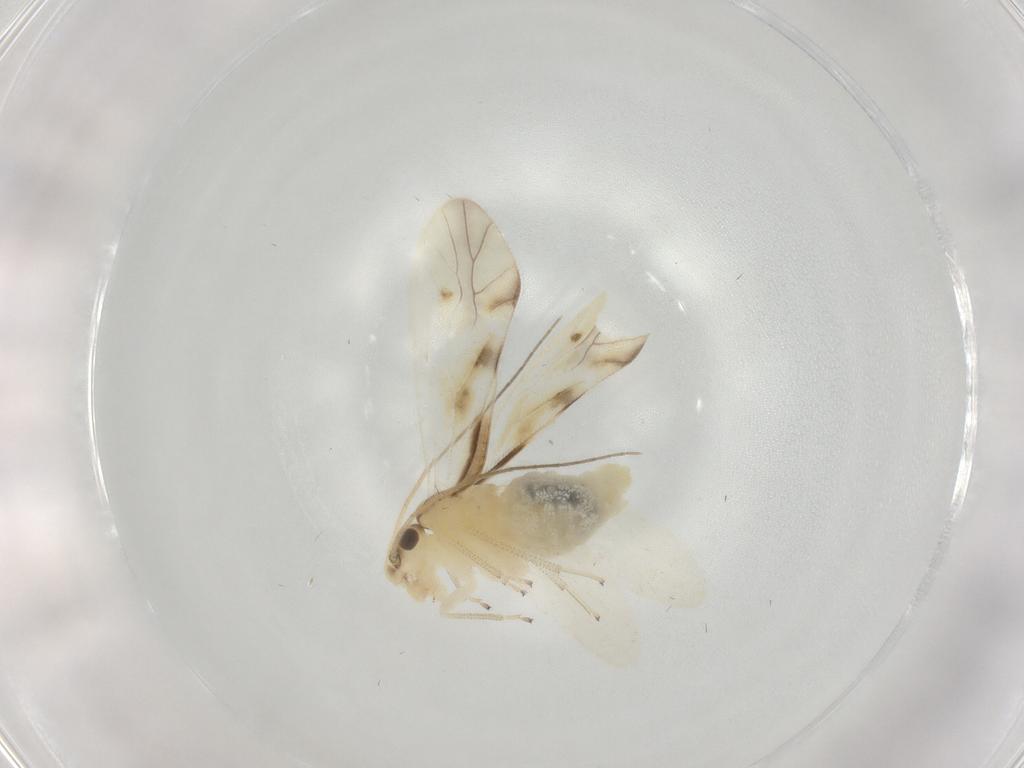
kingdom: Animalia
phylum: Arthropoda
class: Insecta
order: Psocodea
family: Caeciliusidae
